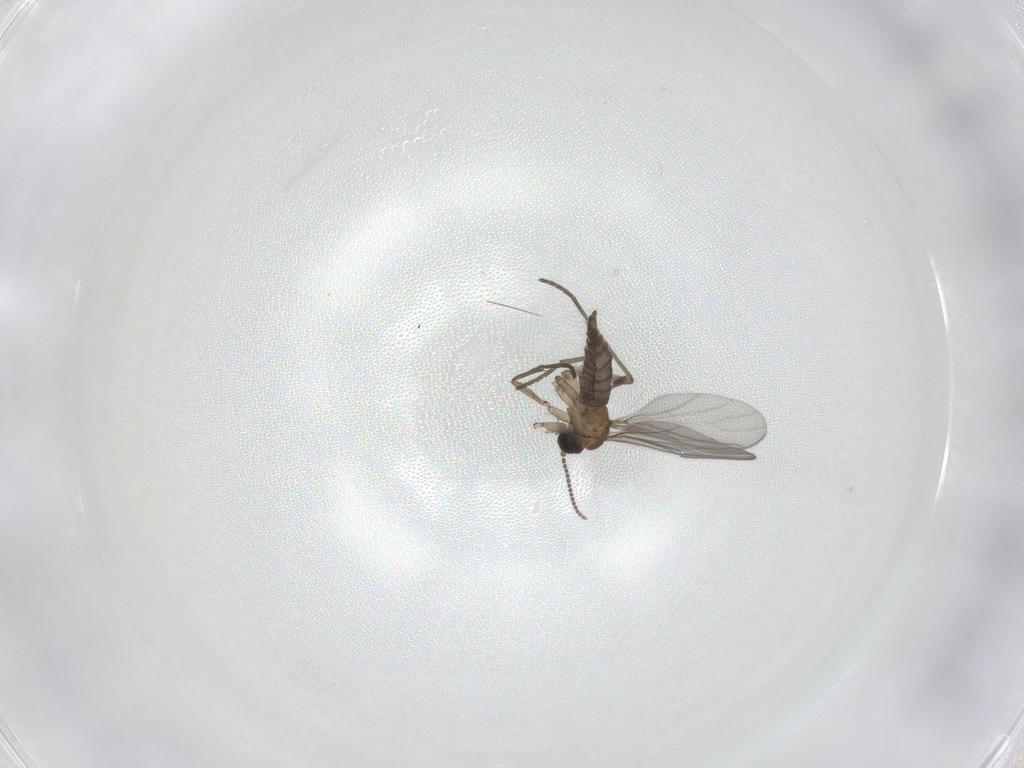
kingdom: Animalia
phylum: Arthropoda
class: Insecta
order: Diptera
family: Sciaridae
